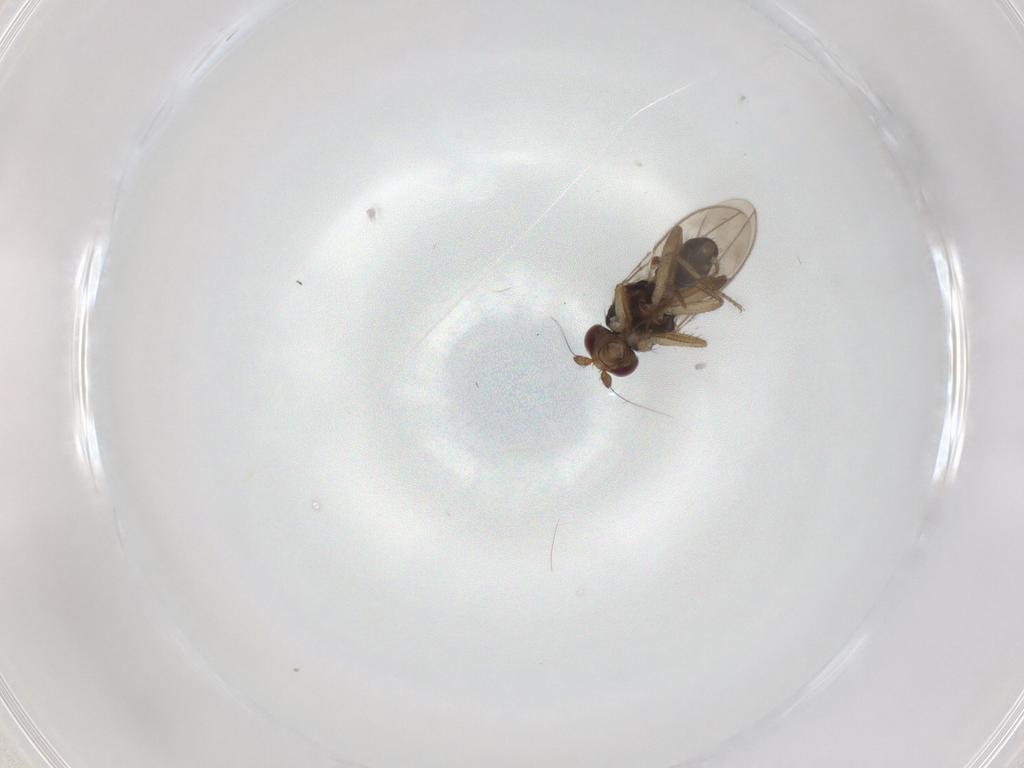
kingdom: Animalia
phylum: Arthropoda
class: Insecta
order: Diptera
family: Sphaeroceridae
